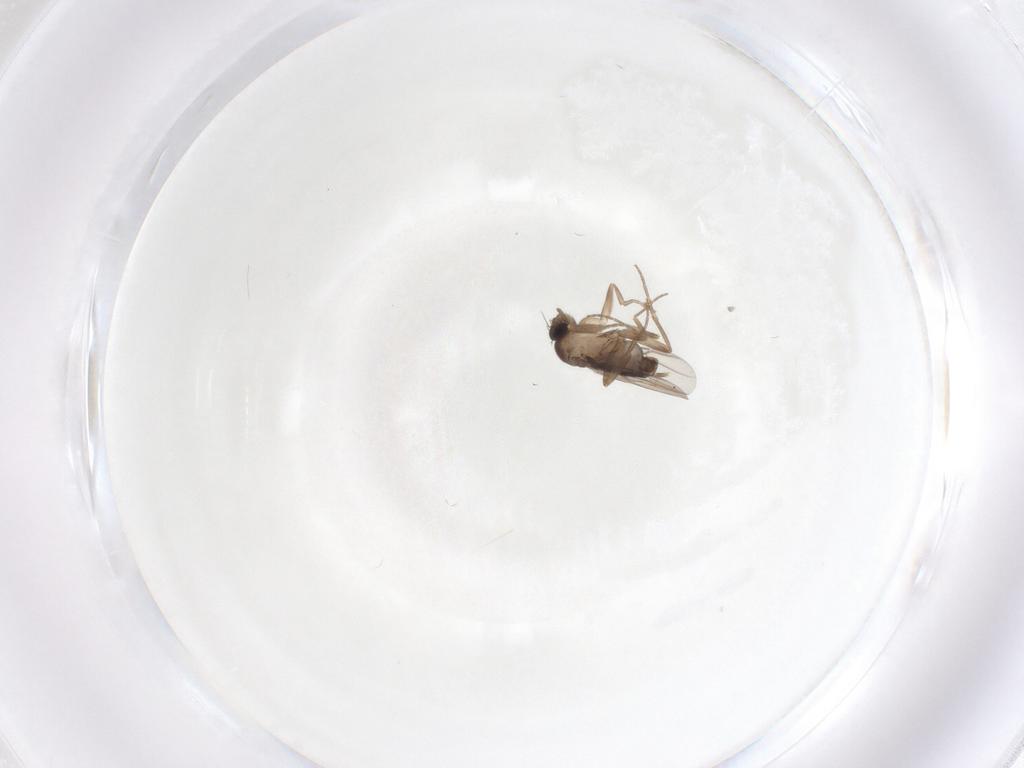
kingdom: Animalia
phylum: Arthropoda
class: Insecta
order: Diptera
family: Phoridae
